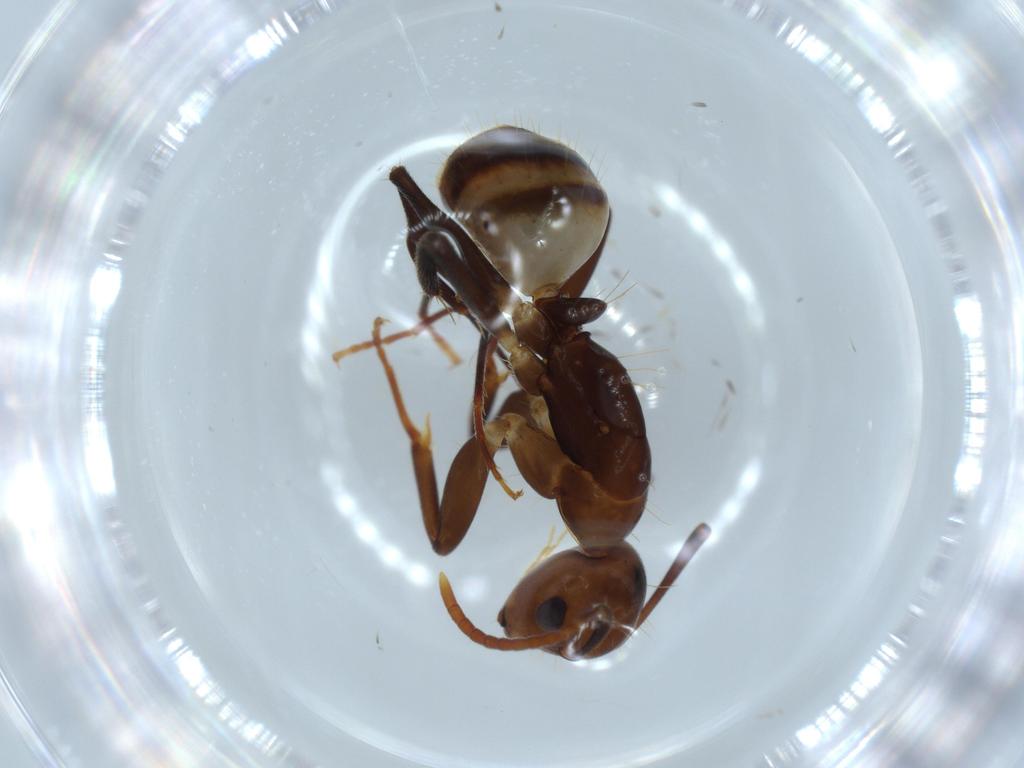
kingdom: Animalia
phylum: Arthropoda
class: Insecta
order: Hymenoptera
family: Formicidae
